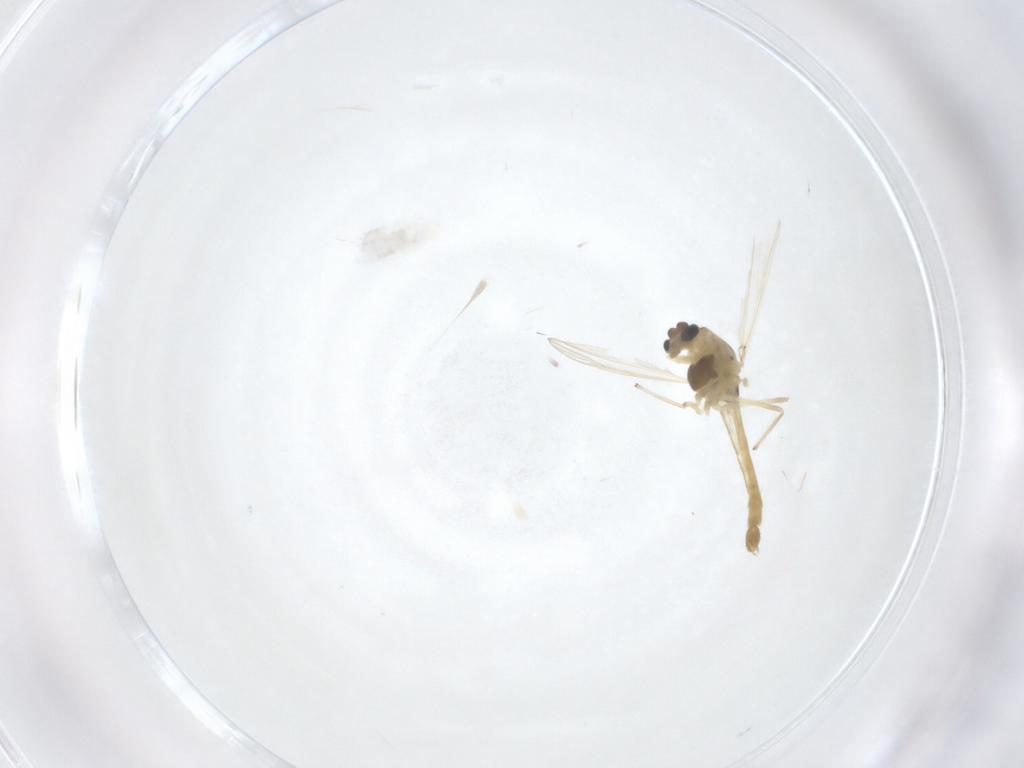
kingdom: Animalia
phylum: Arthropoda
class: Insecta
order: Diptera
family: Chironomidae
